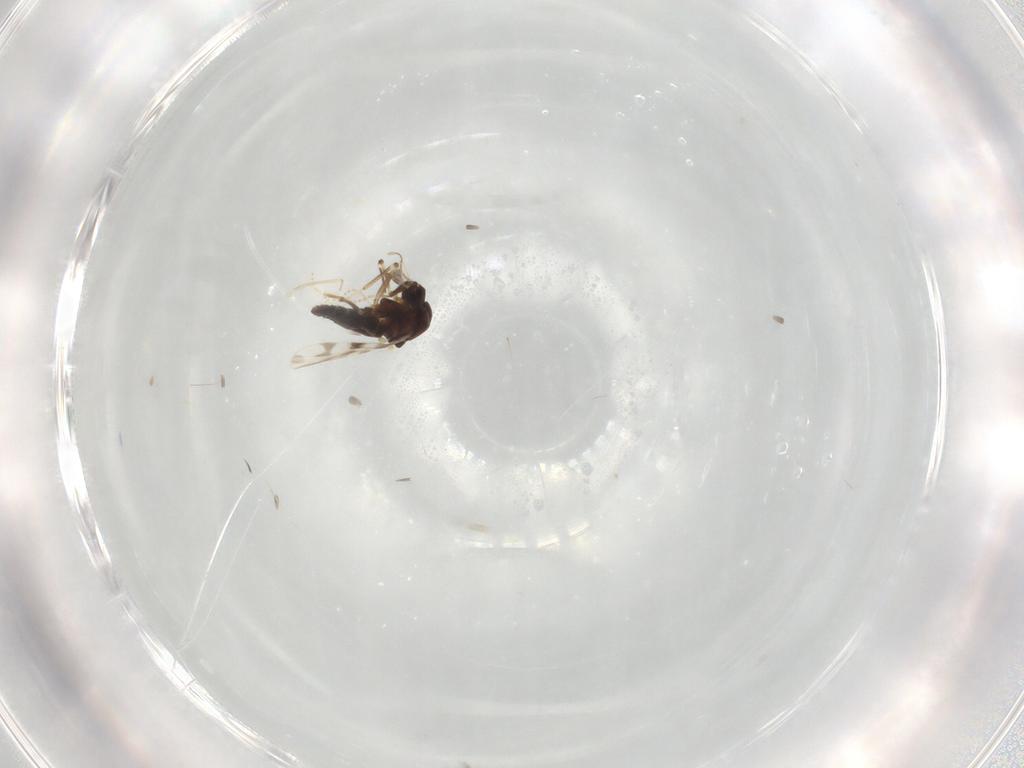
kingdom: Animalia
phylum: Arthropoda
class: Insecta
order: Diptera
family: Cecidomyiidae
